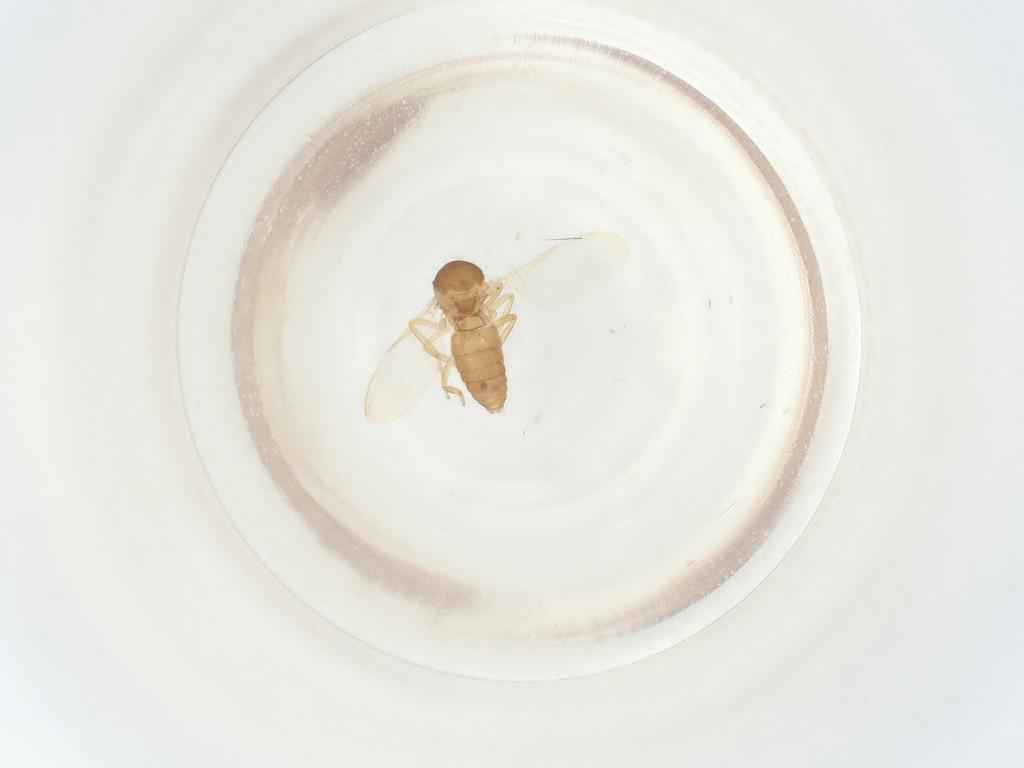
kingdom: Animalia
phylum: Arthropoda
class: Insecta
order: Diptera
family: Ceratopogonidae
